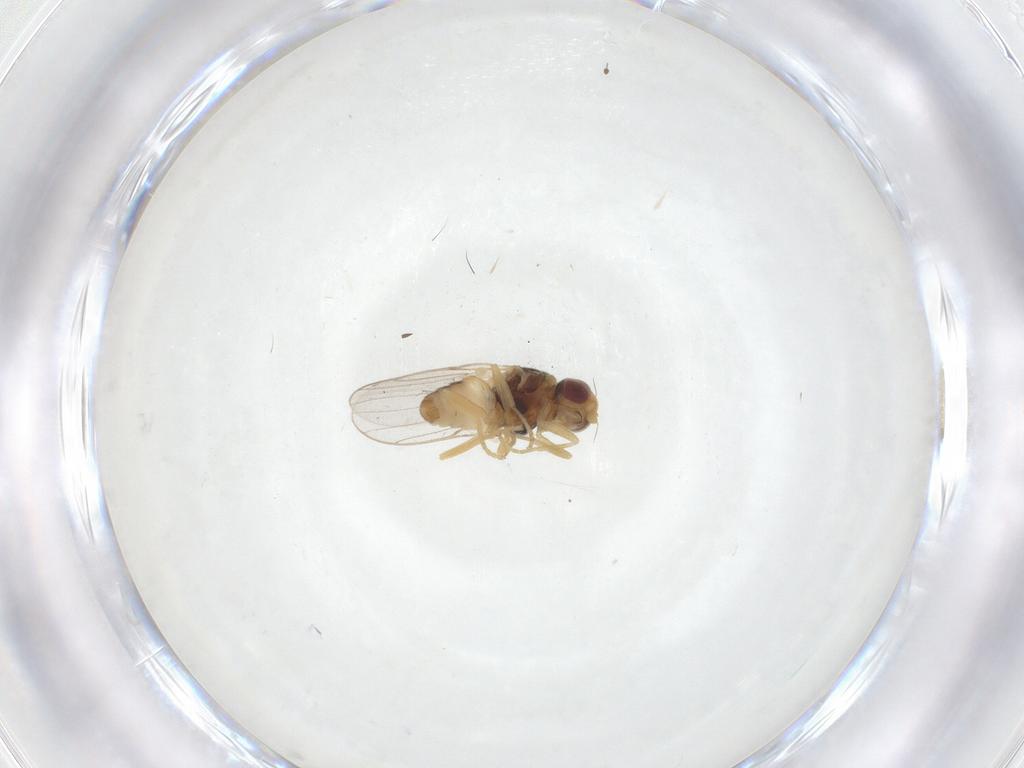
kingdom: Animalia
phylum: Arthropoda
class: Insecta
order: Diptera
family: Chloropidae
